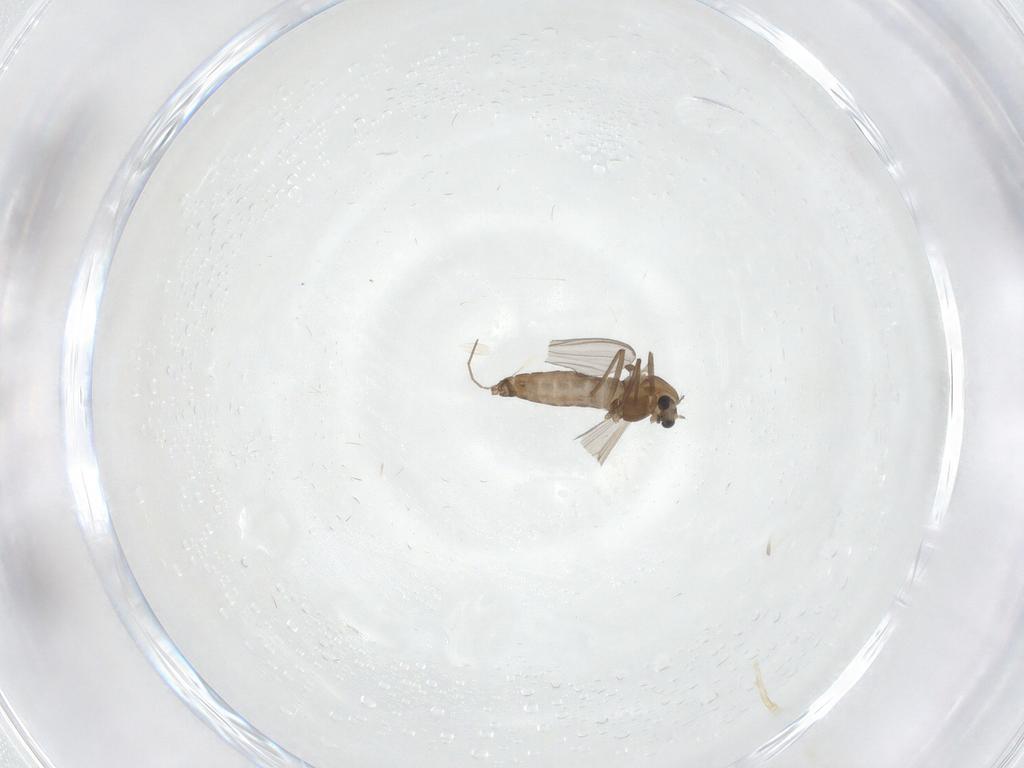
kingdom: Animalia
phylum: Arthropoda
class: Insecta
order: Diptera
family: Chironomidae
